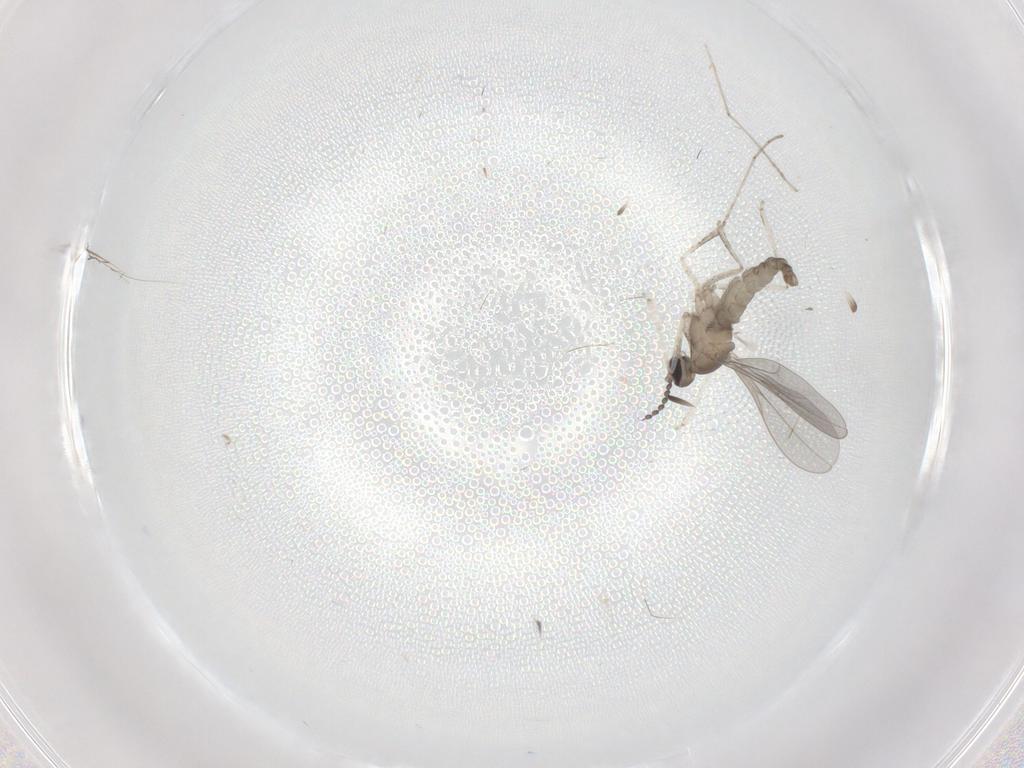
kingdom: Animalia
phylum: Arthropoda
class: Insecta
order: Diptera
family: Cecidomyiidae
